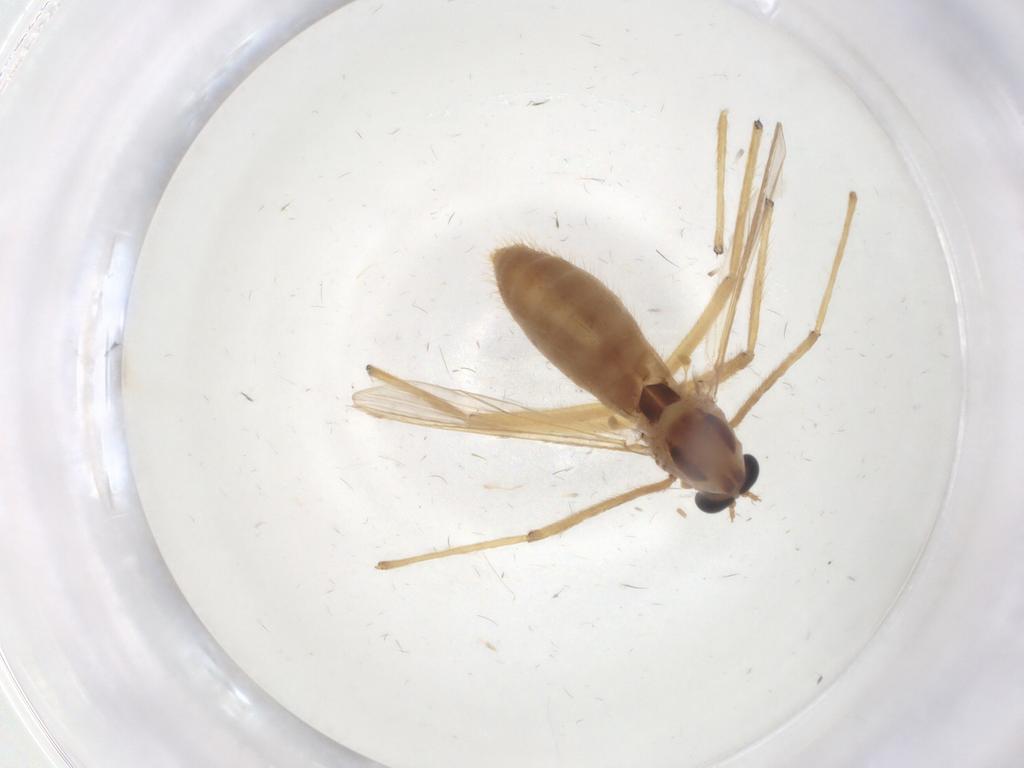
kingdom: Animalia
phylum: Arthropoda
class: Insecta
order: Diptera
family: Chironomidae
